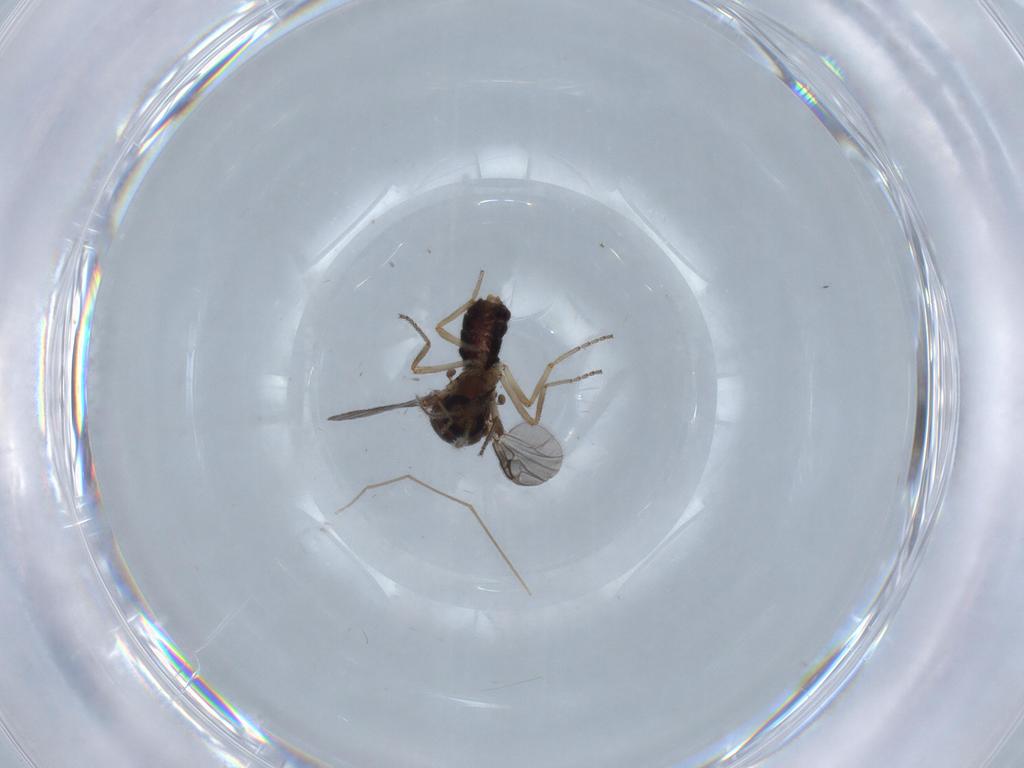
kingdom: Animalia
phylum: Arthropoda
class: Insecta
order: Diptera
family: Ceratopogonidae
